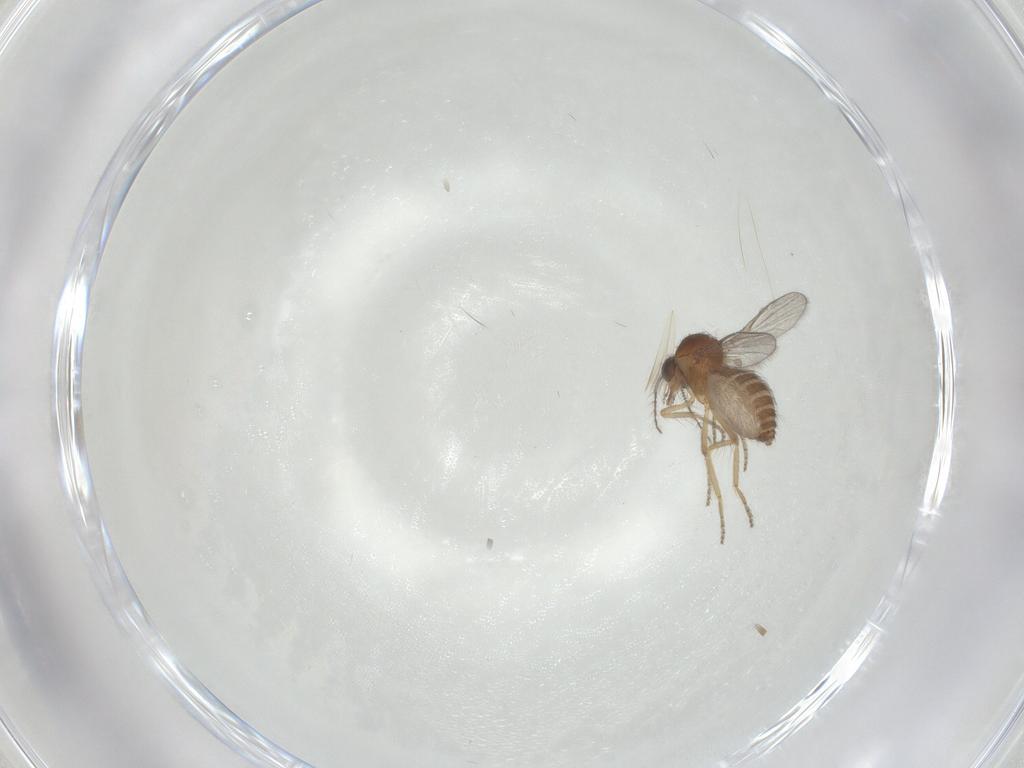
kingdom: Animalia
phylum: Arthropoda
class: Insecta
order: Diptera
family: Ceratopogonidae
